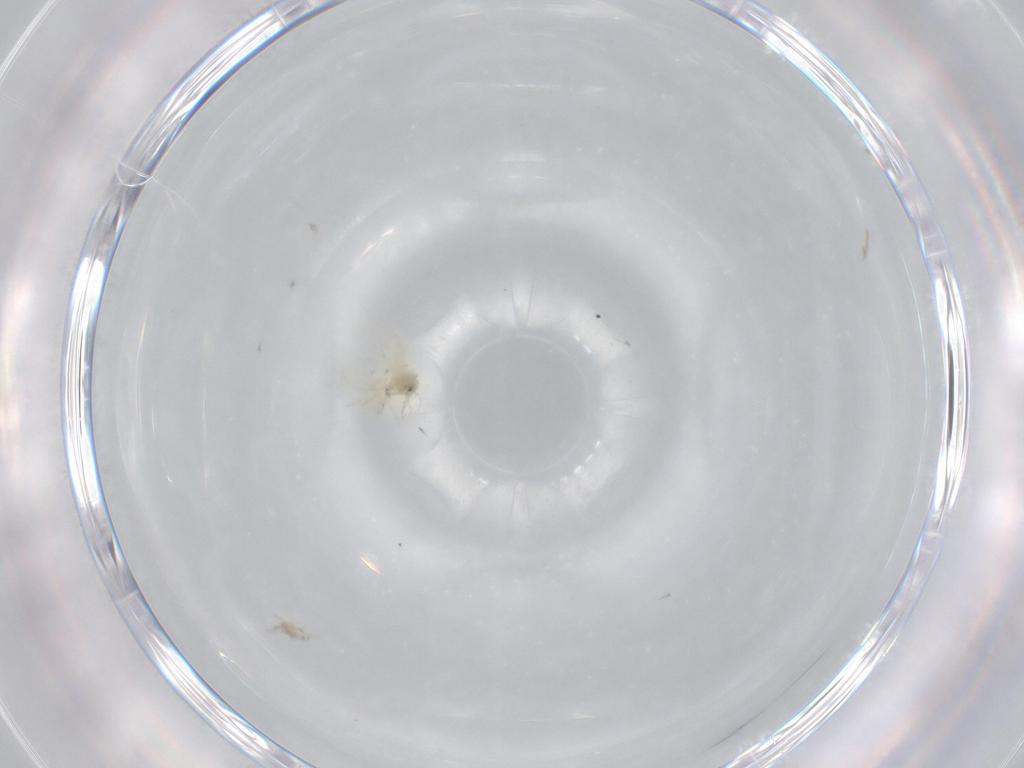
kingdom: Animalia
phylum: Arthropoda
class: Insecta
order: Hemiptera
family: Aleyrodidae
